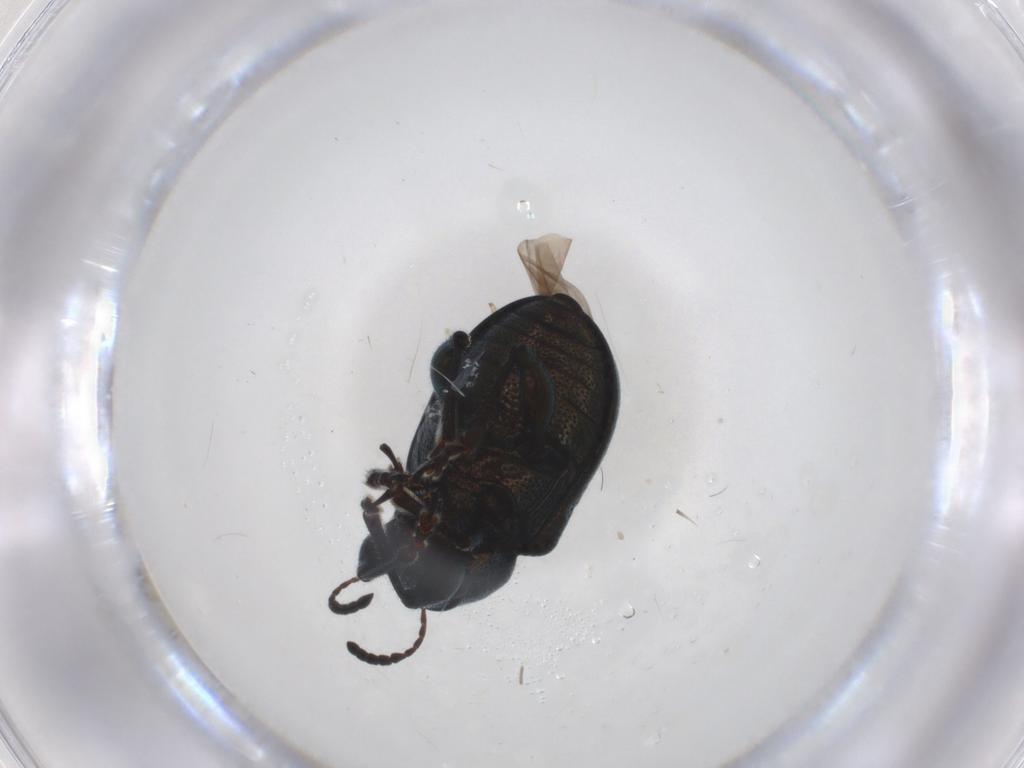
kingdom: Animalia
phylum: Arthropoda
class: Insecta
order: Coleoptera
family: Chrysomelidae
